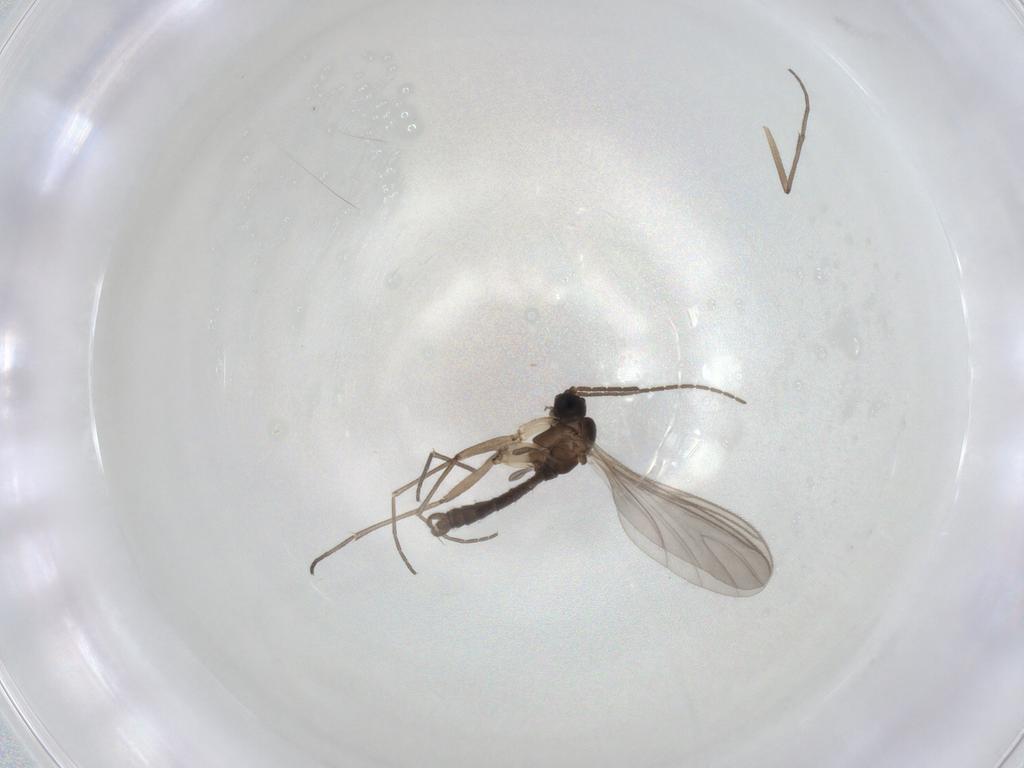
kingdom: Animalia
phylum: Arthropoda
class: Insecta
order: Diptera
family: Sciaridae
